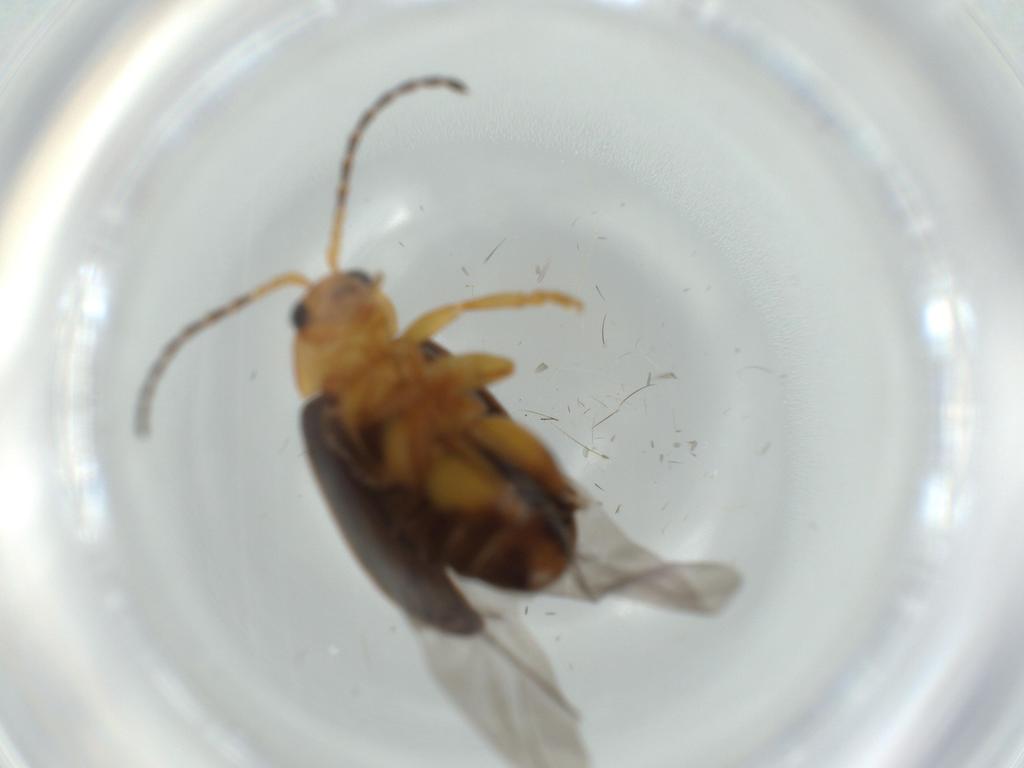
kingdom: Animalia
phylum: Arthropoda
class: Insecta
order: Coleoptera
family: Chrysomelidae
